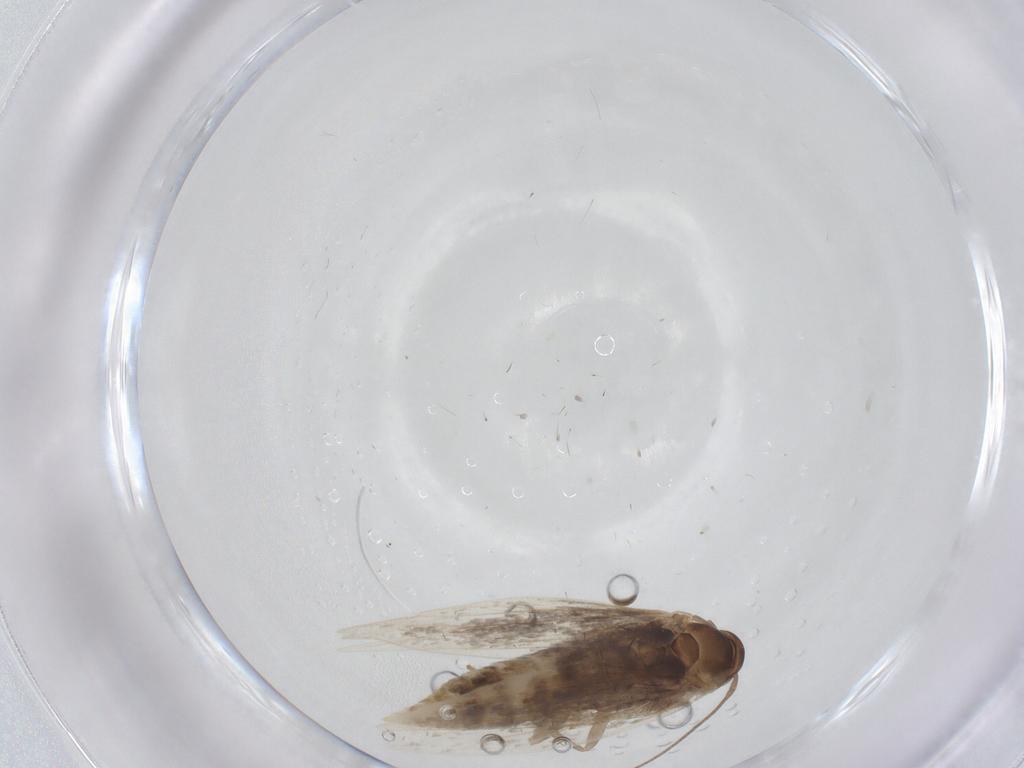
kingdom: Animalia
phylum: Arthropoda
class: Insecta
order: Lepidoptera
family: Elachistidae
